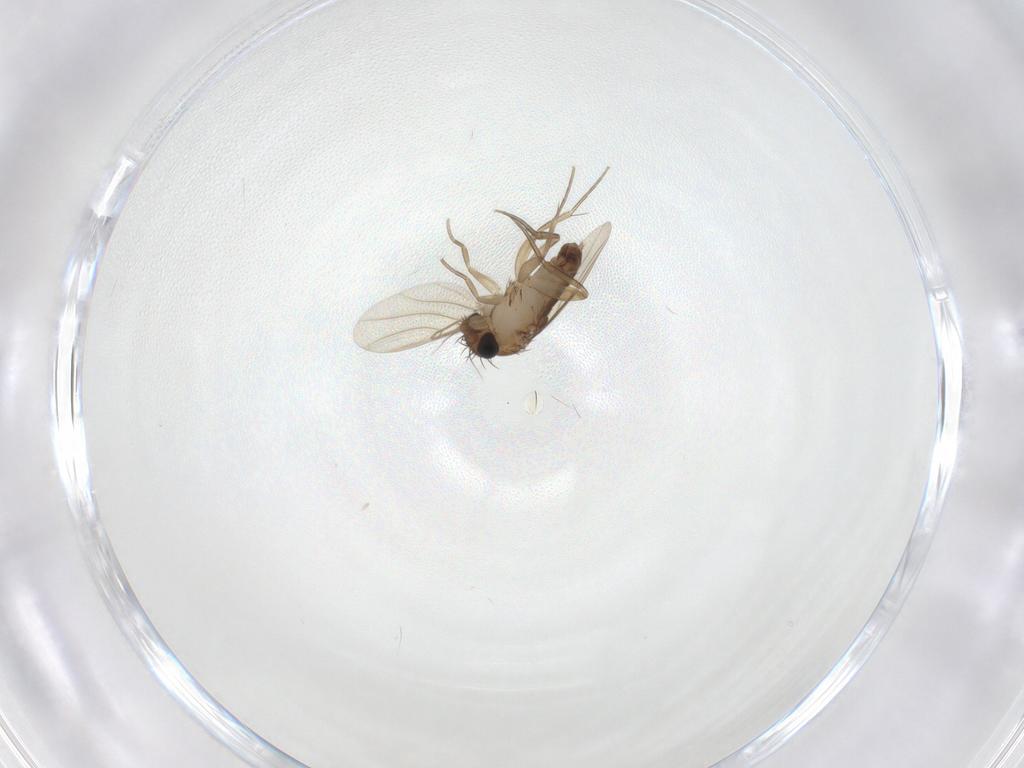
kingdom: Animalia
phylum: Arthropoda
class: Insecta
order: Diptera
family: Phoridae
